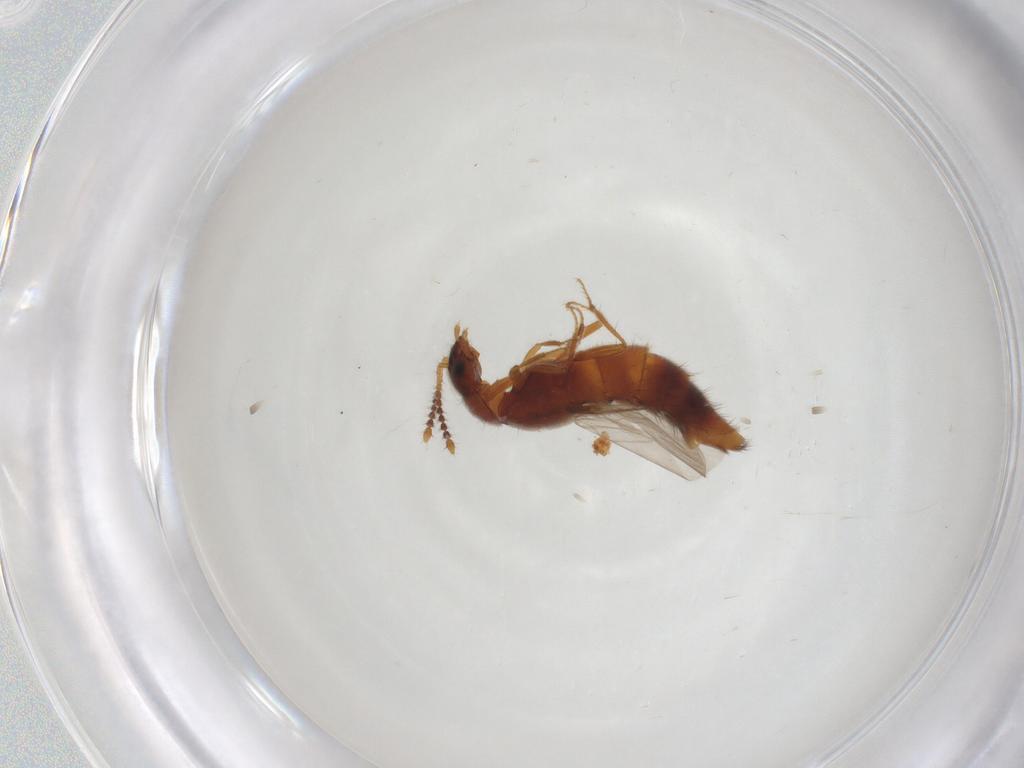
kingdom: Animalia
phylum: Arthropoda
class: Insecta
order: Coleoptera
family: Staphylinidae
